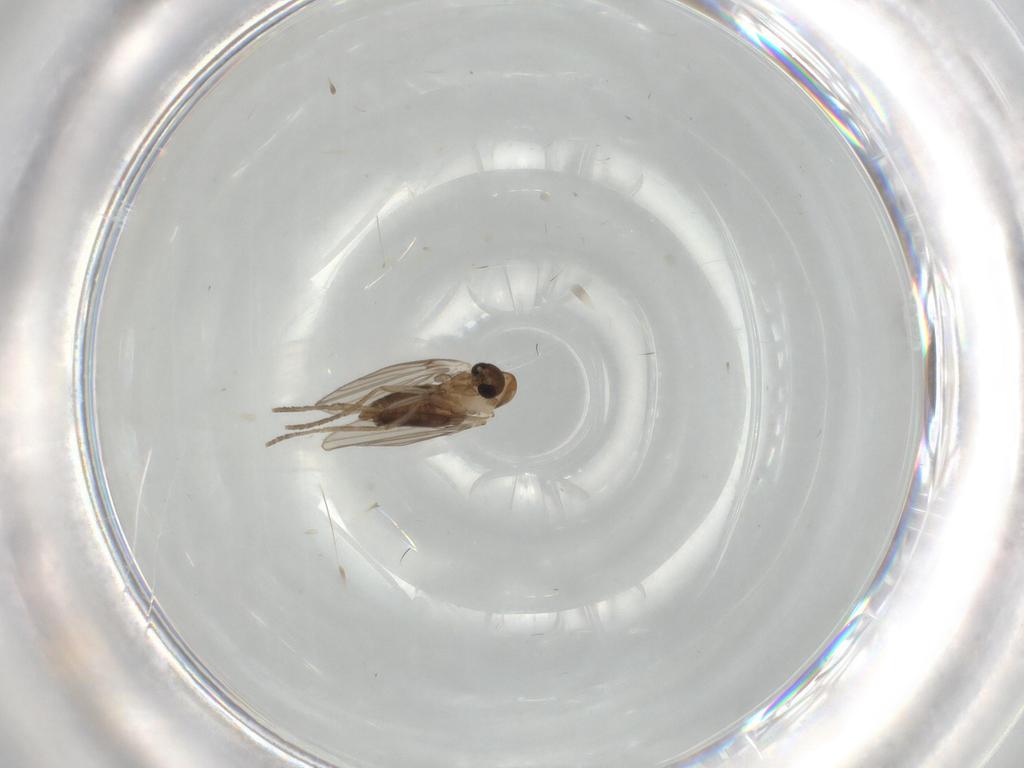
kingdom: Animalia
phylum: Arthropoda
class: Insecta
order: Diptera
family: Psychodidae
